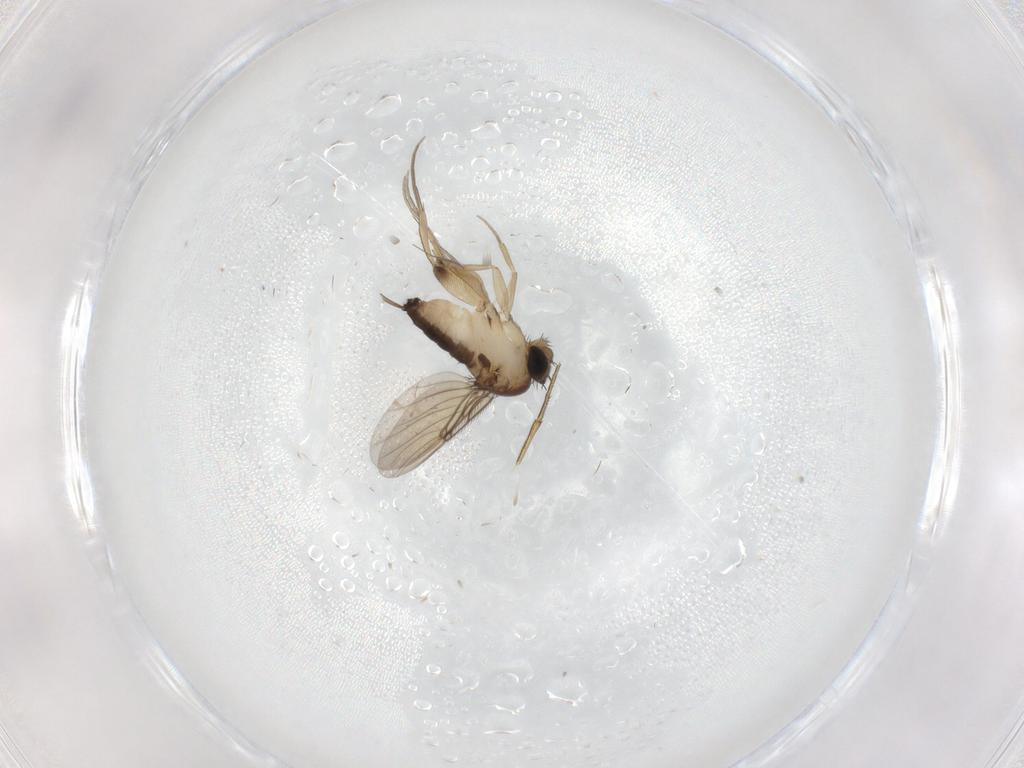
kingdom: Animalia
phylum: Arthropoda
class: Insecta
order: Diptera
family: Keroplatidae
